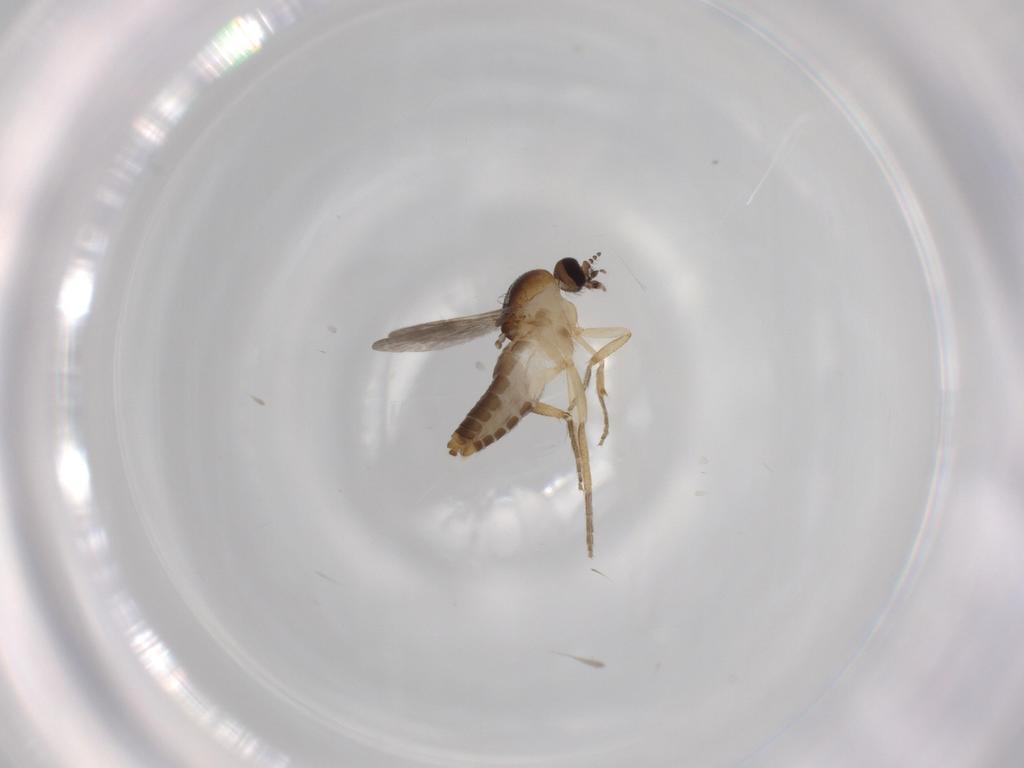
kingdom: Animalia
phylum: Arthropoda
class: Insecta
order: Diptera
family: Ceratopogonidae
